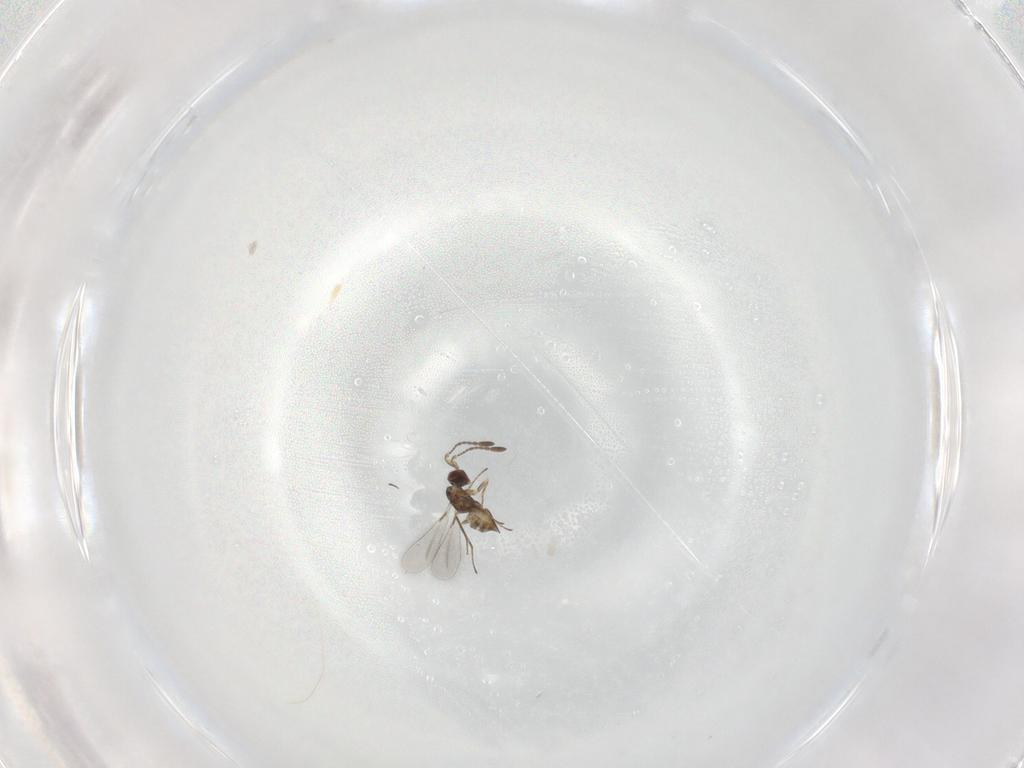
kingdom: Animalia
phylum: Arthropoda
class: Insecta
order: Hymenoptera
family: Mymaridae
